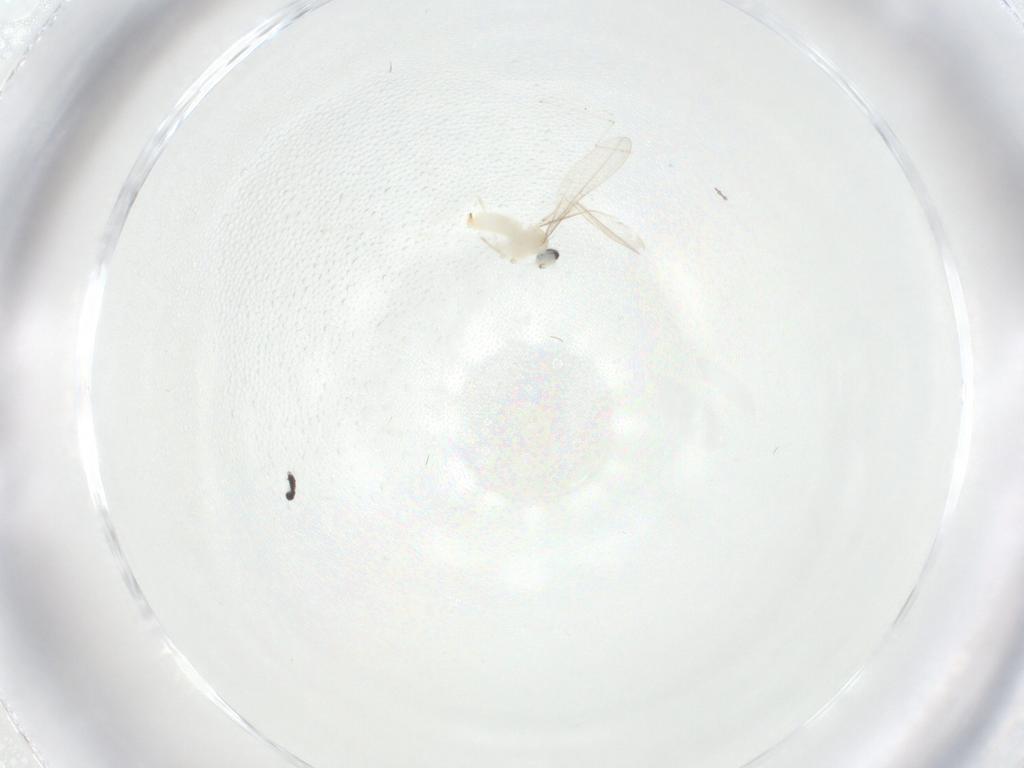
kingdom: Animalia
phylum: Arthropoda
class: Insecta
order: Diptera
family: Cecidomyiidae
